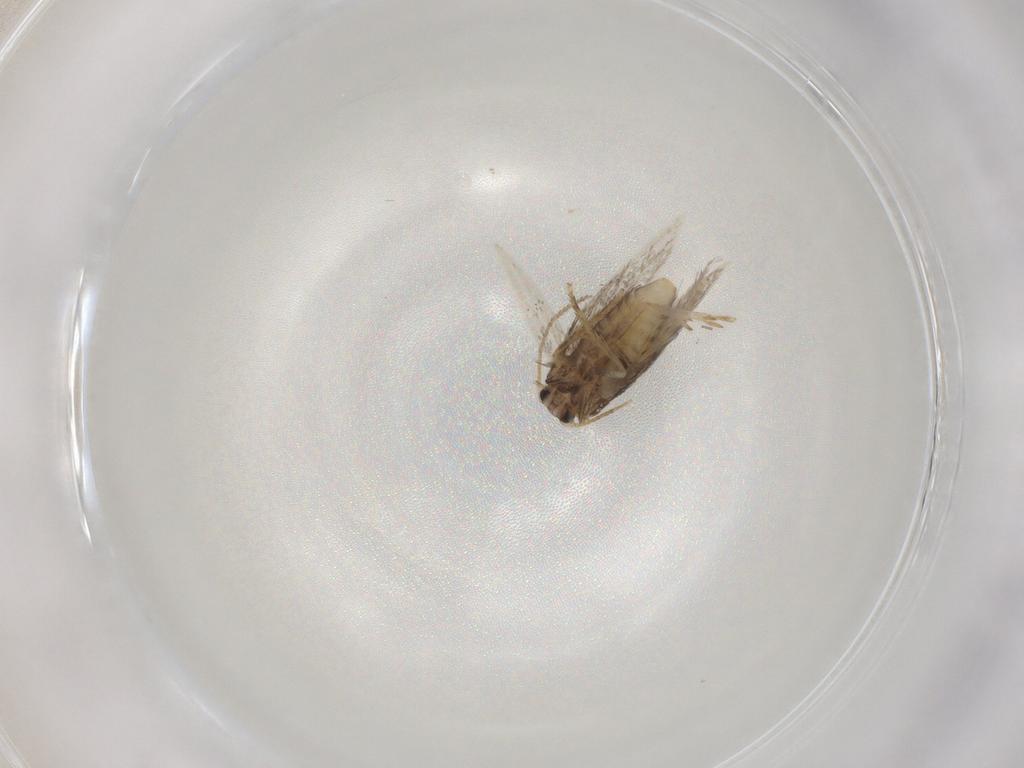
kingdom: Animalia
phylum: Arthropoda
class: Insecta
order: Lepidoptera
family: Nepticulidae
